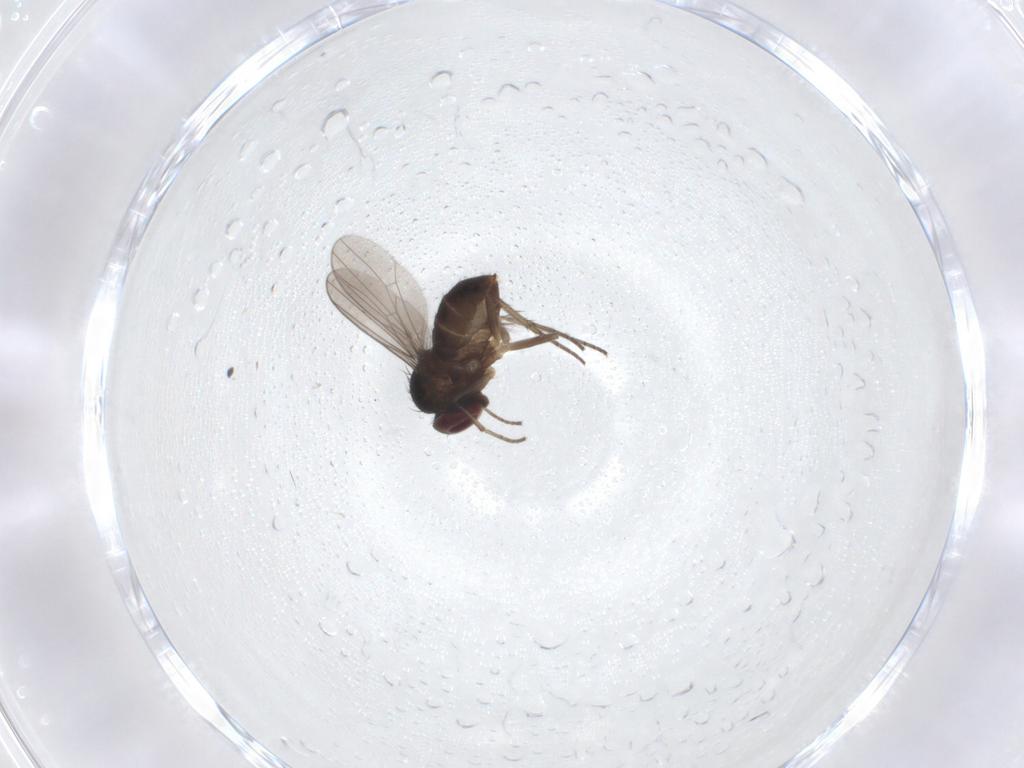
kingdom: Animalia
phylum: Arthropoda
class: Insecta
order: Diptera
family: Dolichopodidae
